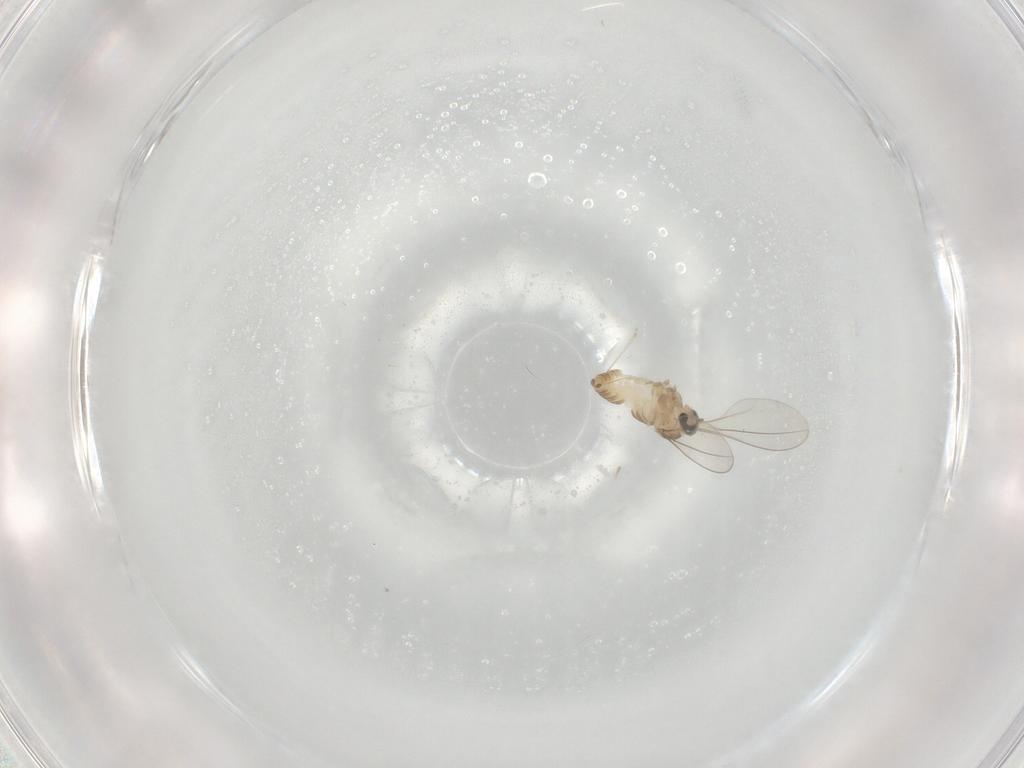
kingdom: Animalia
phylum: Arthropoda
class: Insecta
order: Diptera
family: Cecidomyiidae
